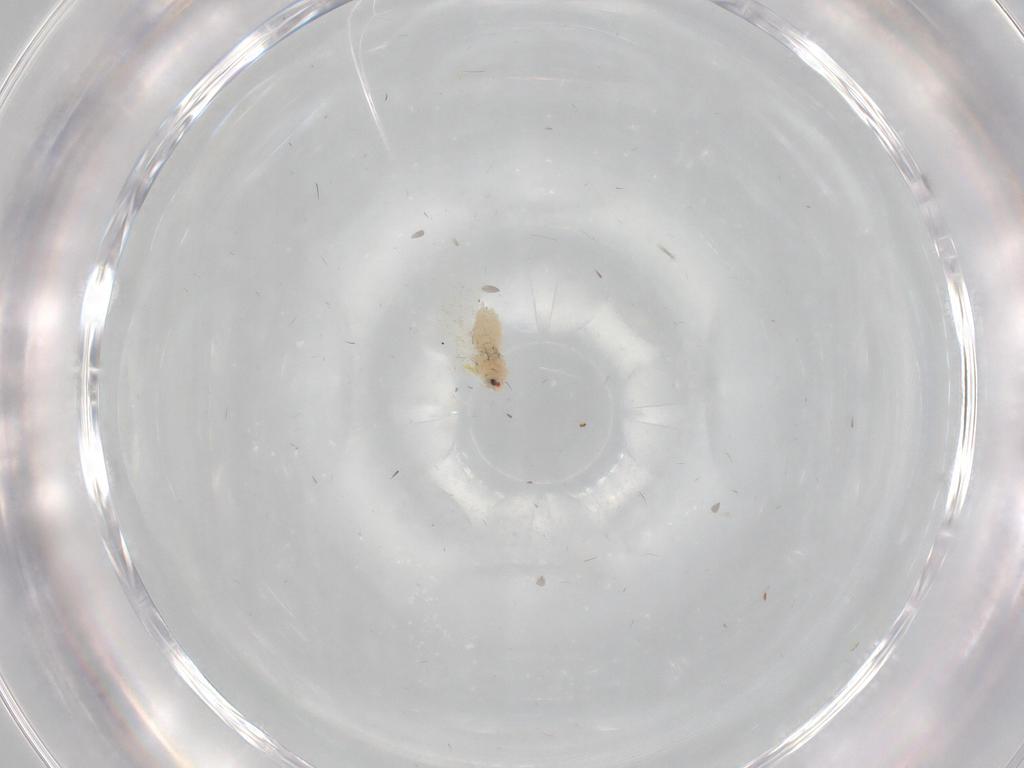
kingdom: Animalia
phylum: Arthropoda
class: Insecta
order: Hemiptera
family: Aleyrodidae
